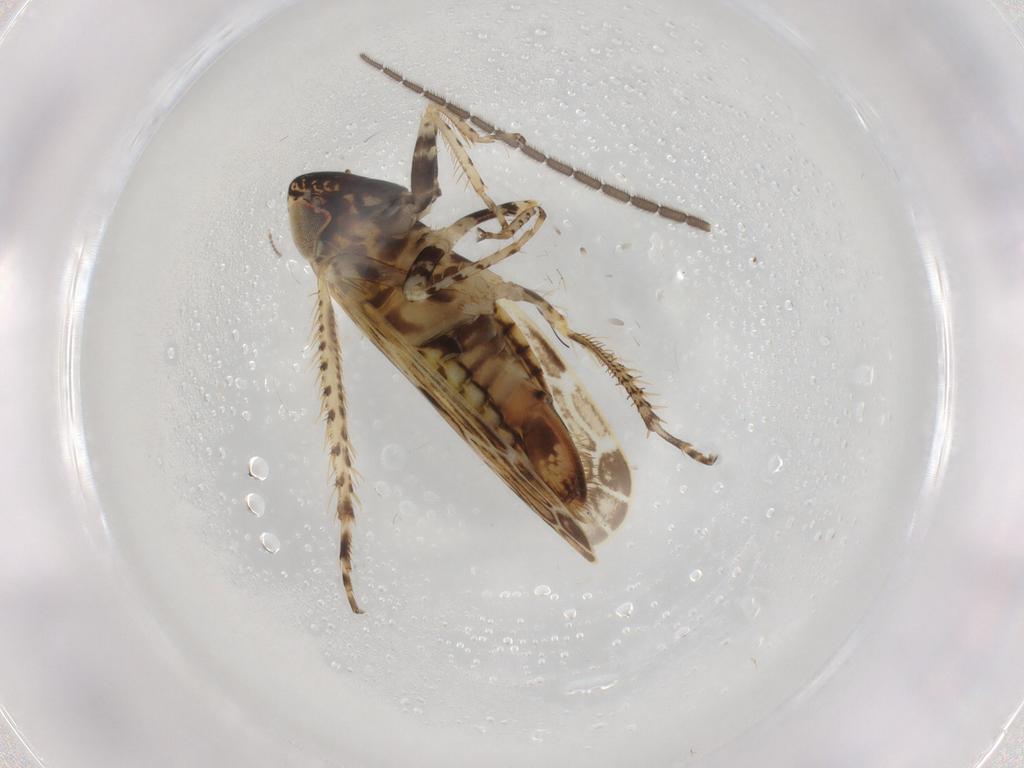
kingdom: Animalia
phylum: Arthropoda
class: Insecta
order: Hemiptera
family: Cicadellidae
